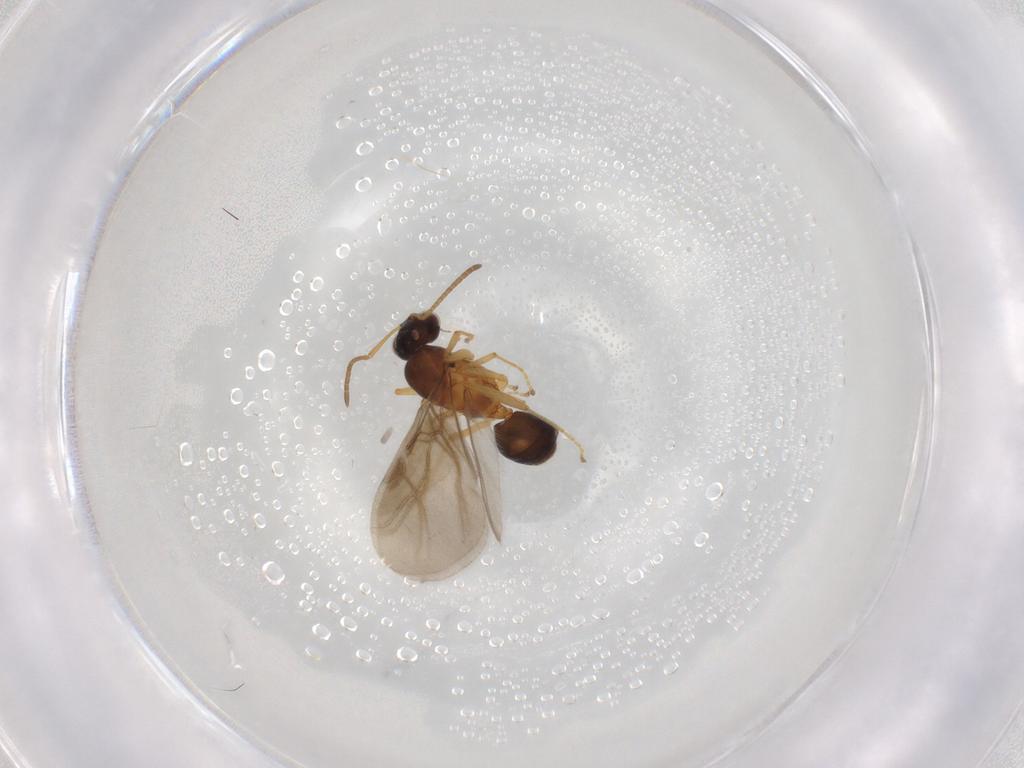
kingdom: Animalia
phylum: Arthropoda
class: Insecta
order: Hymenoptera
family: Formicidae
